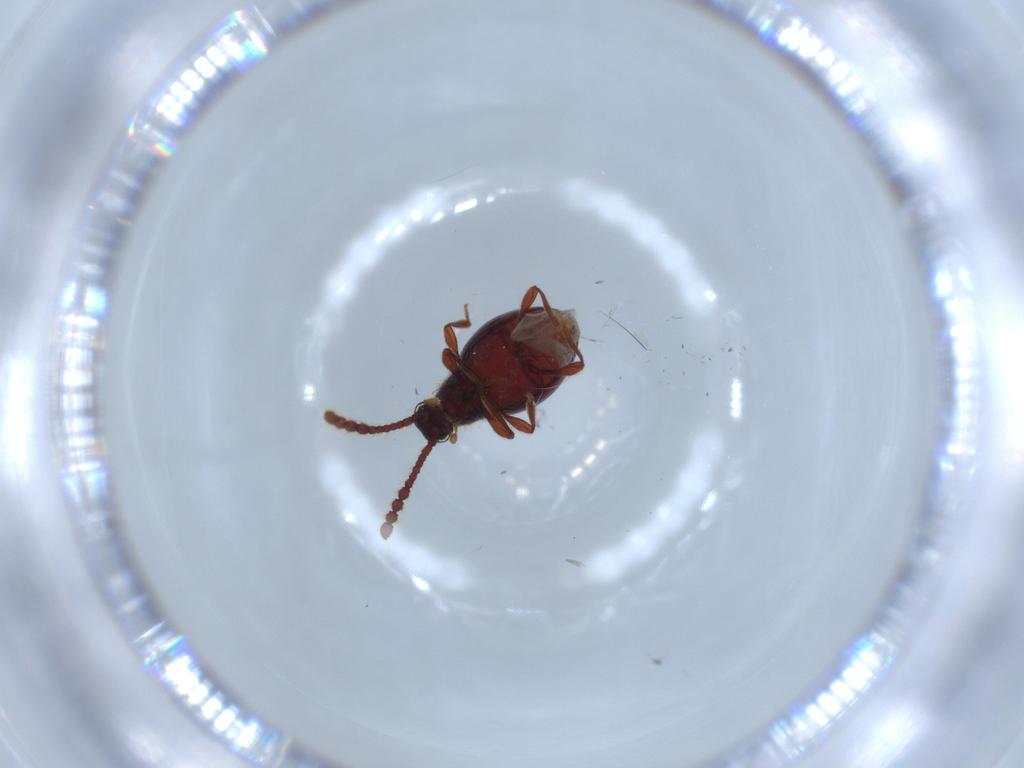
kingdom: Animalia
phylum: Arthropoda
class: Insecta
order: Coleoptera
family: Staphylinidae
